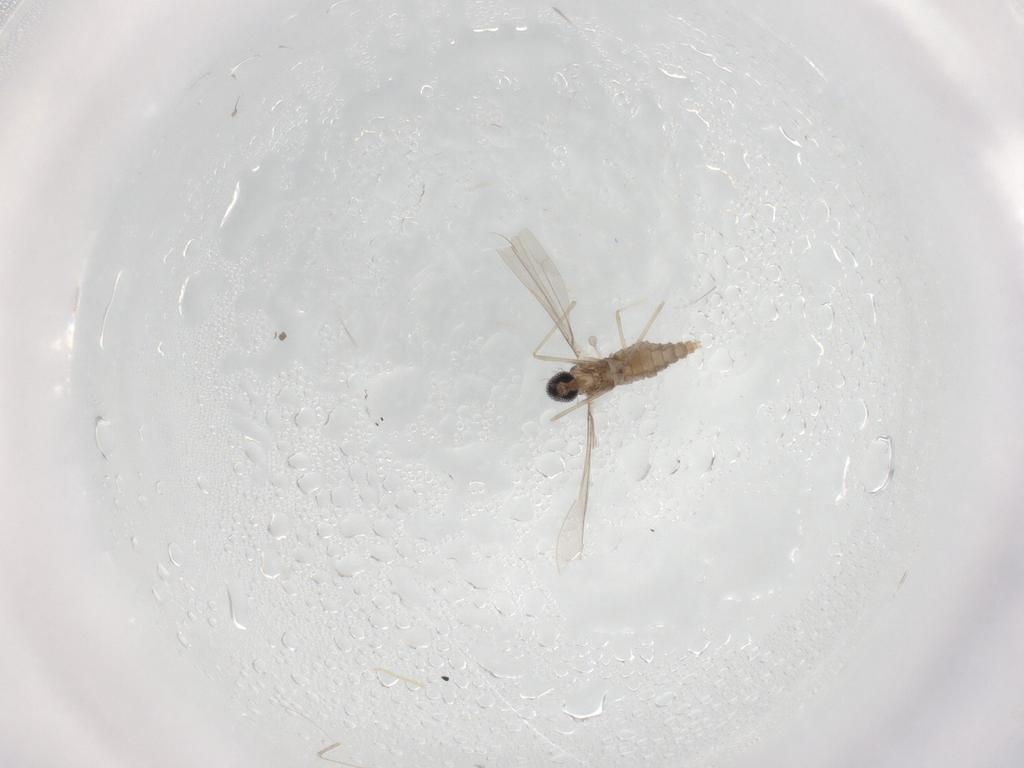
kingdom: Animalia
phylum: Arthropoda
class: Insecta
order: Diptera
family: Cecidomyiidae
